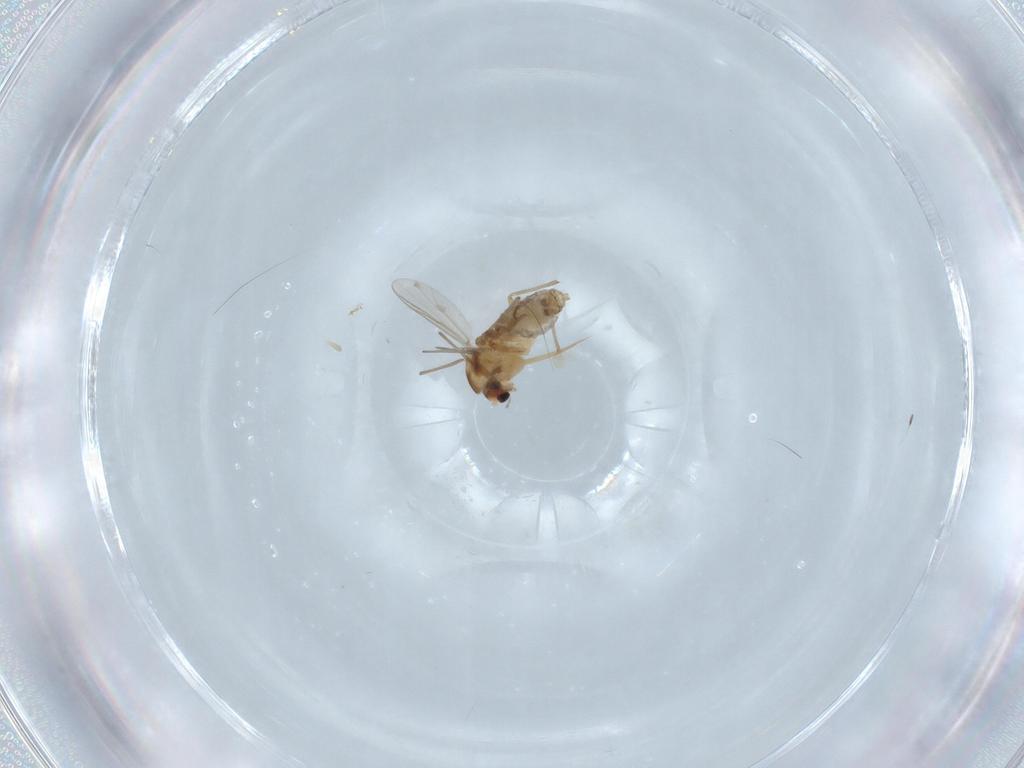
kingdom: Animalia
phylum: Arthropoda
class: Insecta
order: Diptera
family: Chironomidae
